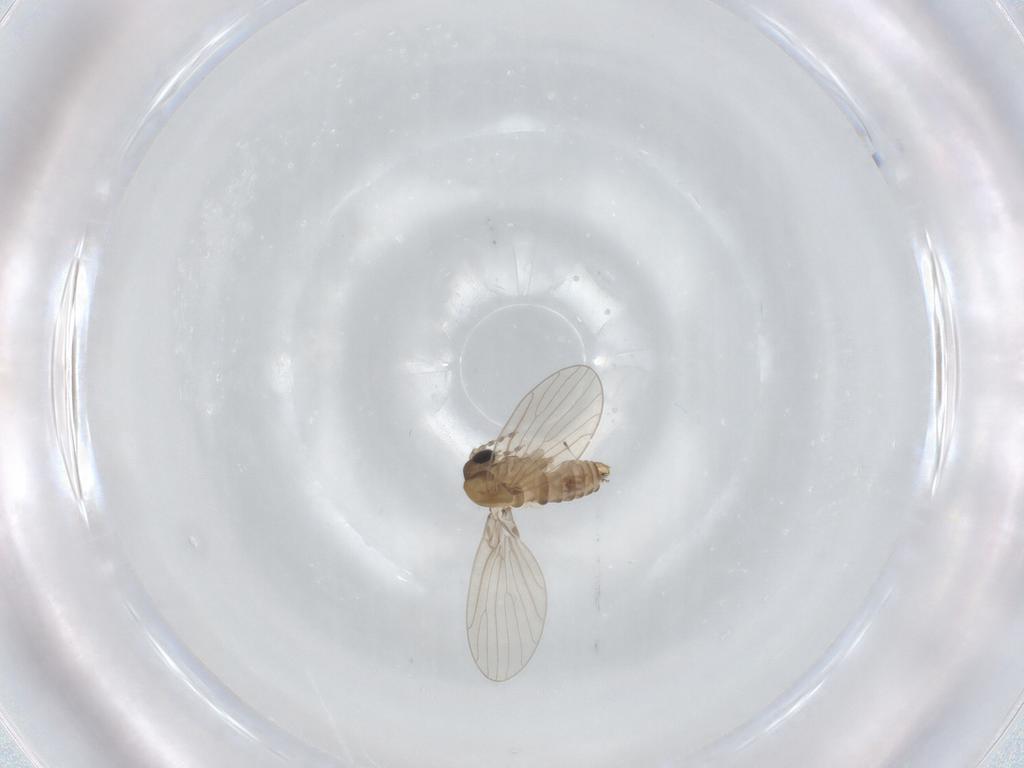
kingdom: Animalia
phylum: Arthropoda
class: Insecta
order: Diptera
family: Psychodidae
